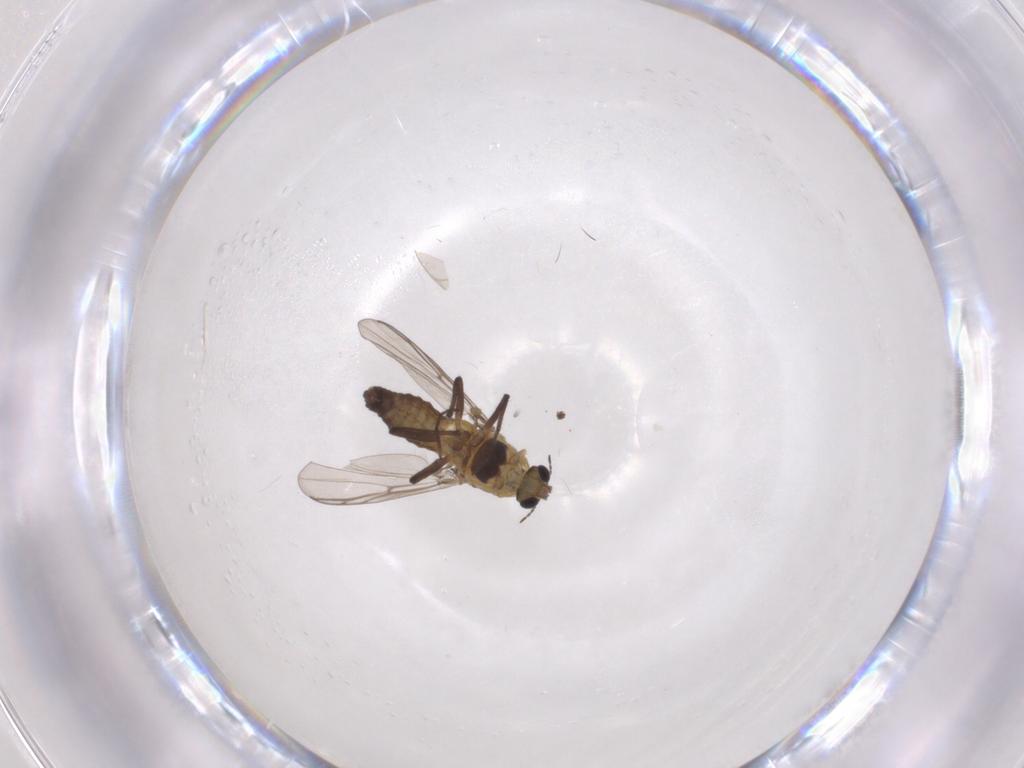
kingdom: Animalia
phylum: Arthropoda
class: Insecta
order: Diptera
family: Chironomidae
